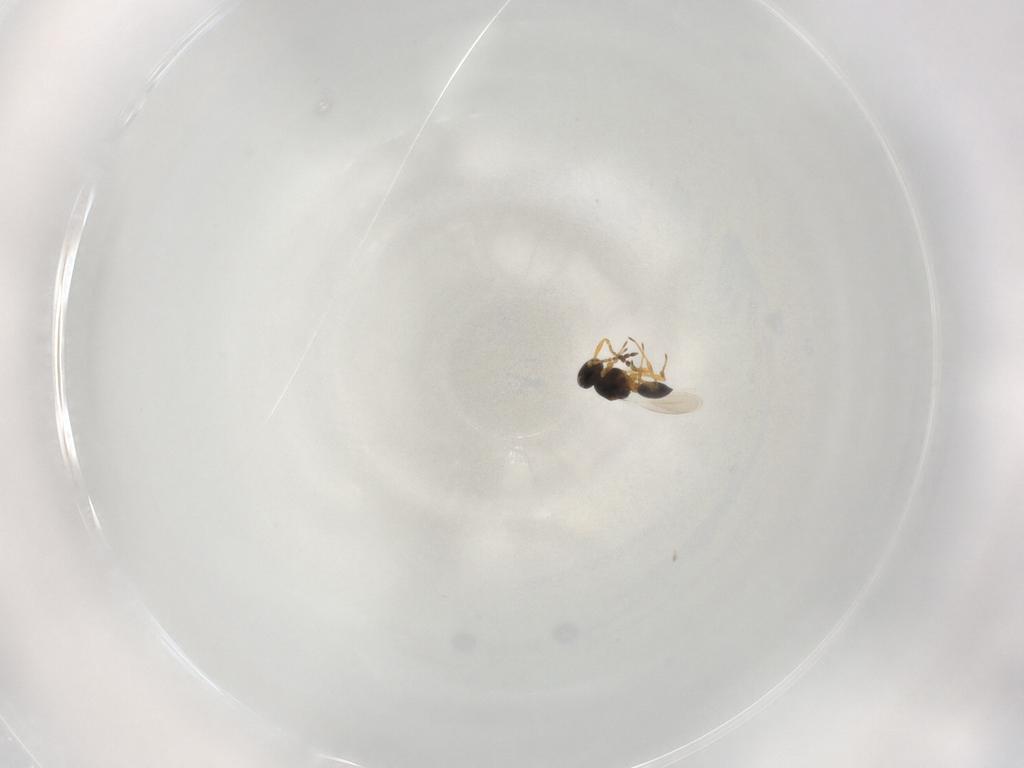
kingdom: Animalia
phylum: Arthropoda
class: Insecta
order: Hymenoptera
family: Platygastridae
